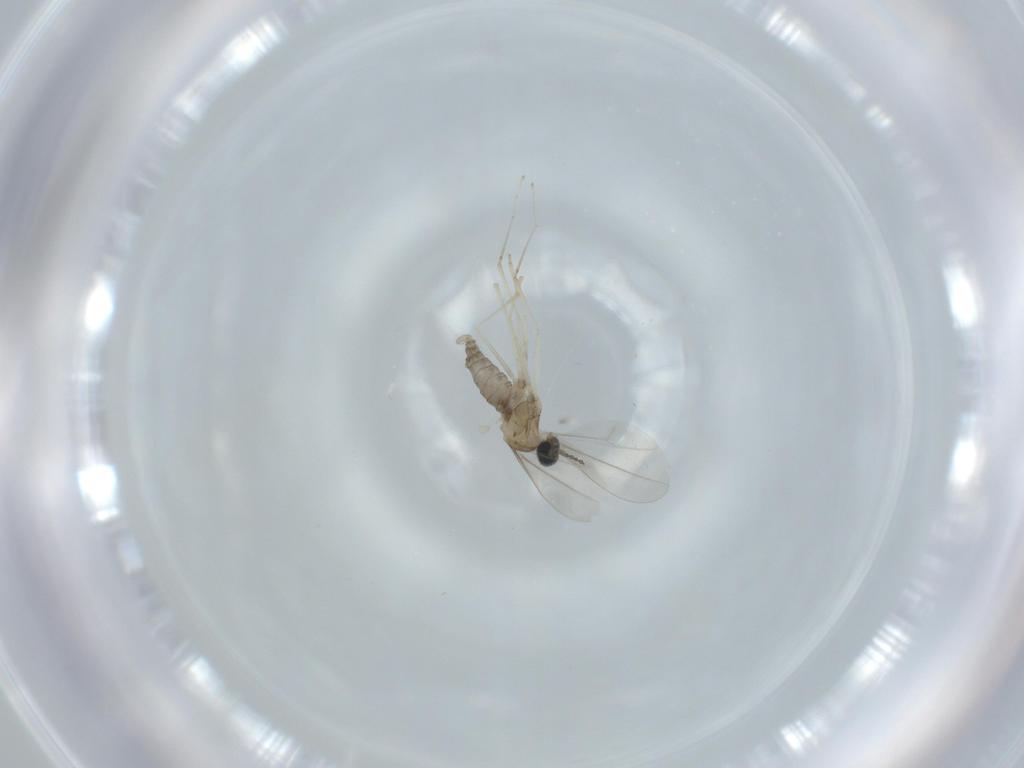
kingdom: Animalia
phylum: Arthropoda
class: Insecta
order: Diptera
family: Cecidomyiidae
